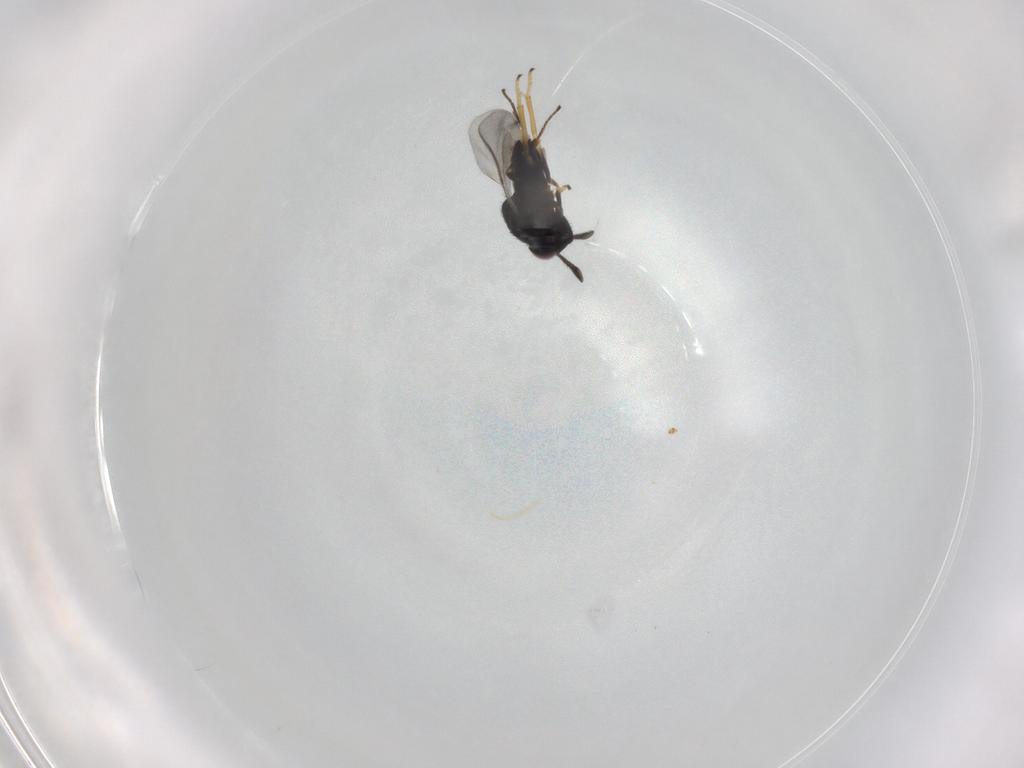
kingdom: Animalia
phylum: Arthropoda
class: Insecta
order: Hymenoptera
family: Encyrtidae
